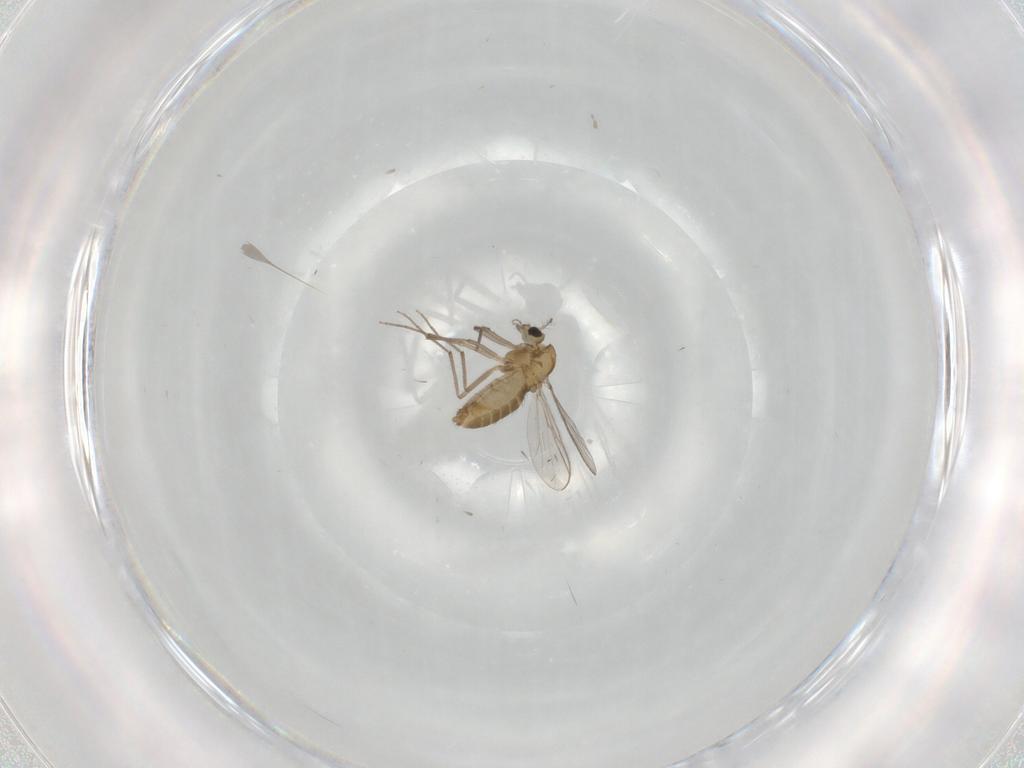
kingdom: Animalia
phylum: Arthropoda
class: Insecta
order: Diptera
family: Chironomidae
